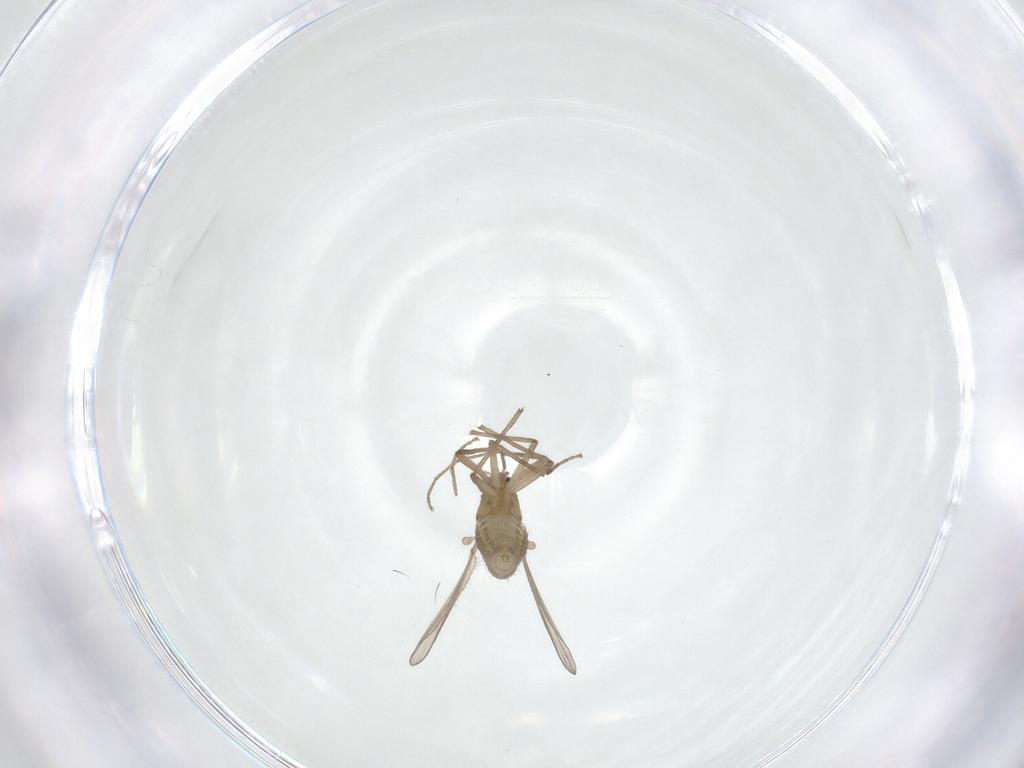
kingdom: Animalia
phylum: Arthropoda
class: Insecta
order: Diptera
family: Chironomidae
